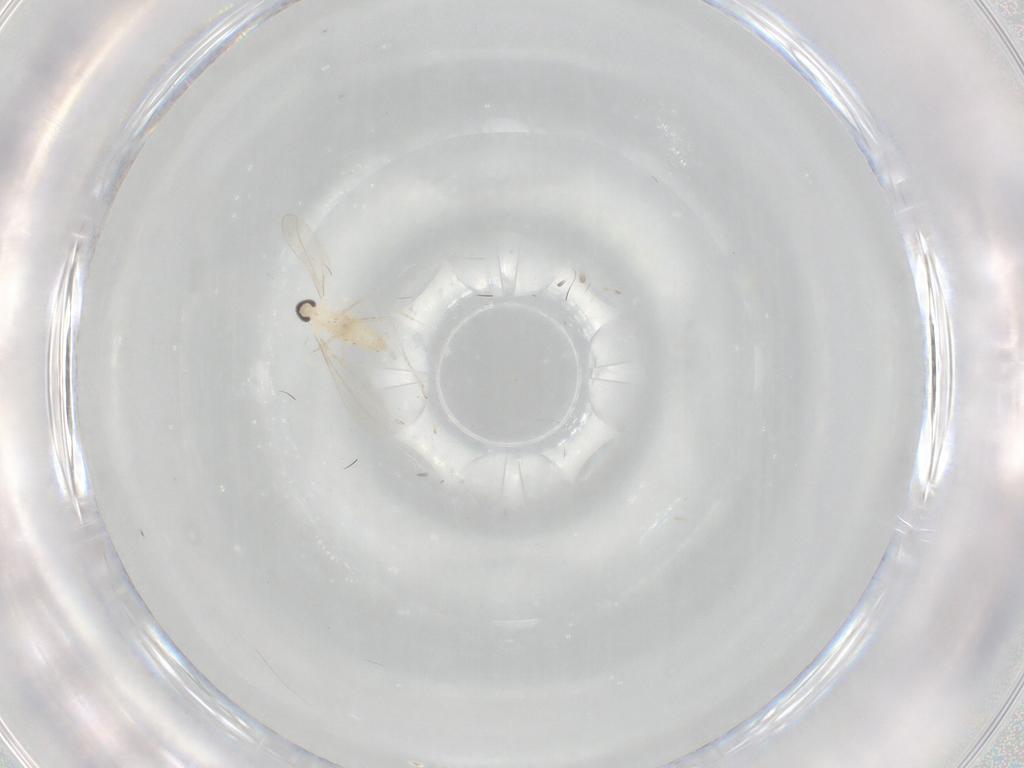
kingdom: Animalia
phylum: Arthropoda
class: Insecta
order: Diptera
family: Cecidomyiidae
